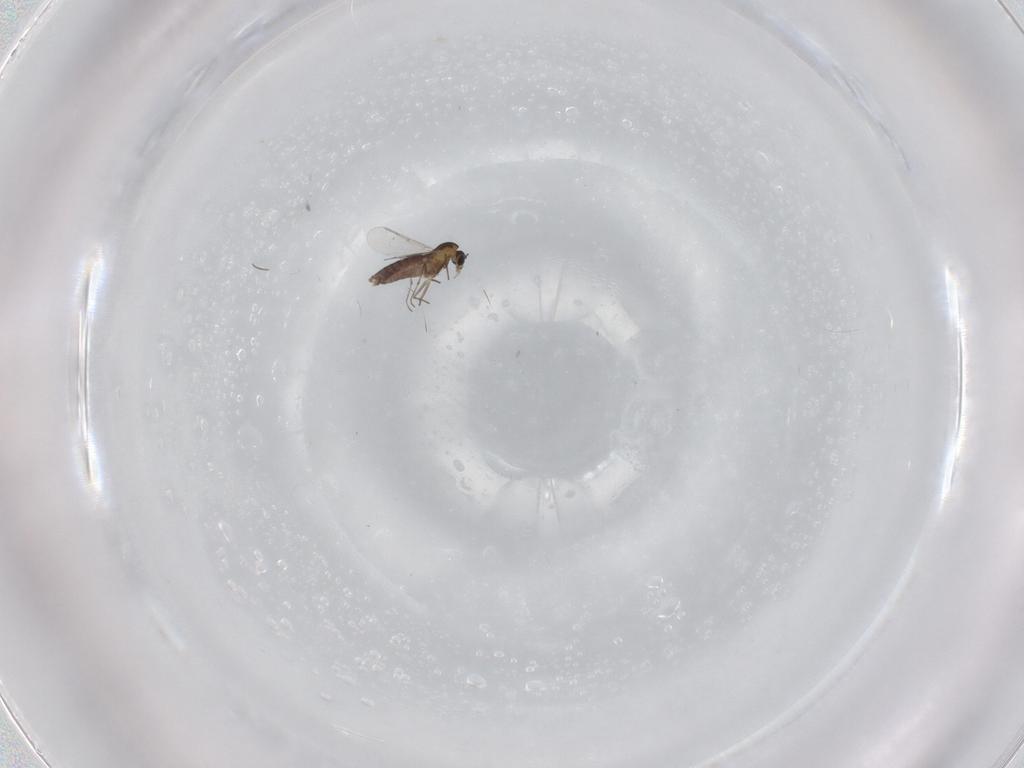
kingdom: Animalia
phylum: Arthropoda
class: Insecta
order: Diptera
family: Chironomidae
